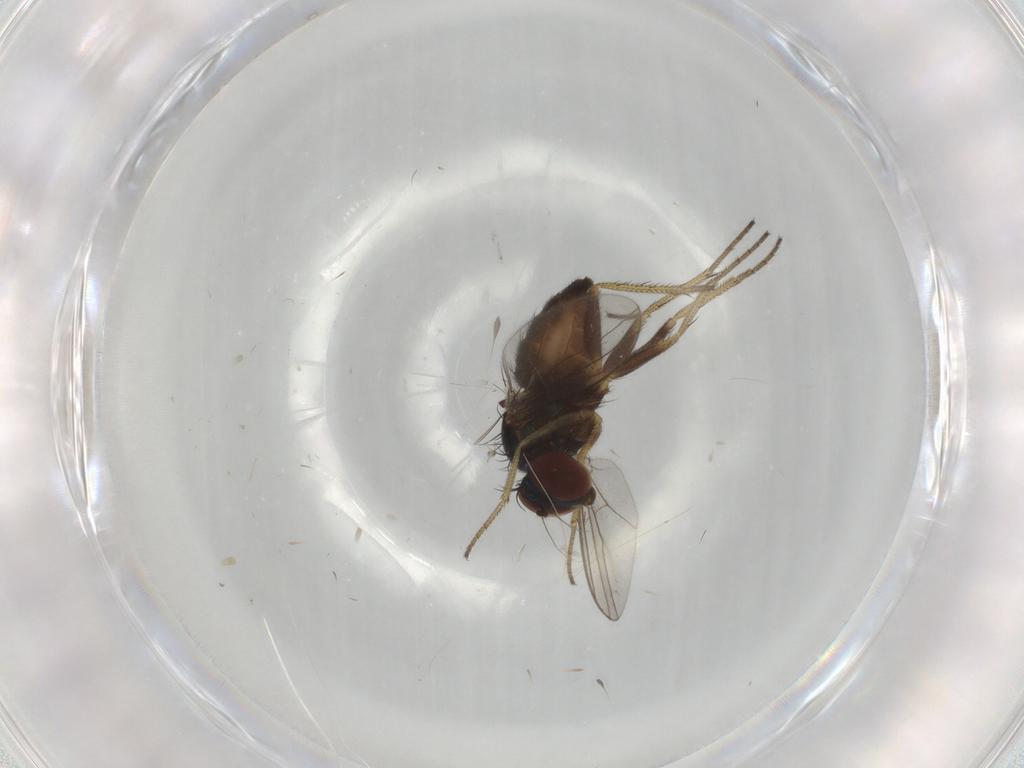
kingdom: Animalia
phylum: Arthropoda
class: Insecta
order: Diptera
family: Dolichopodidae
